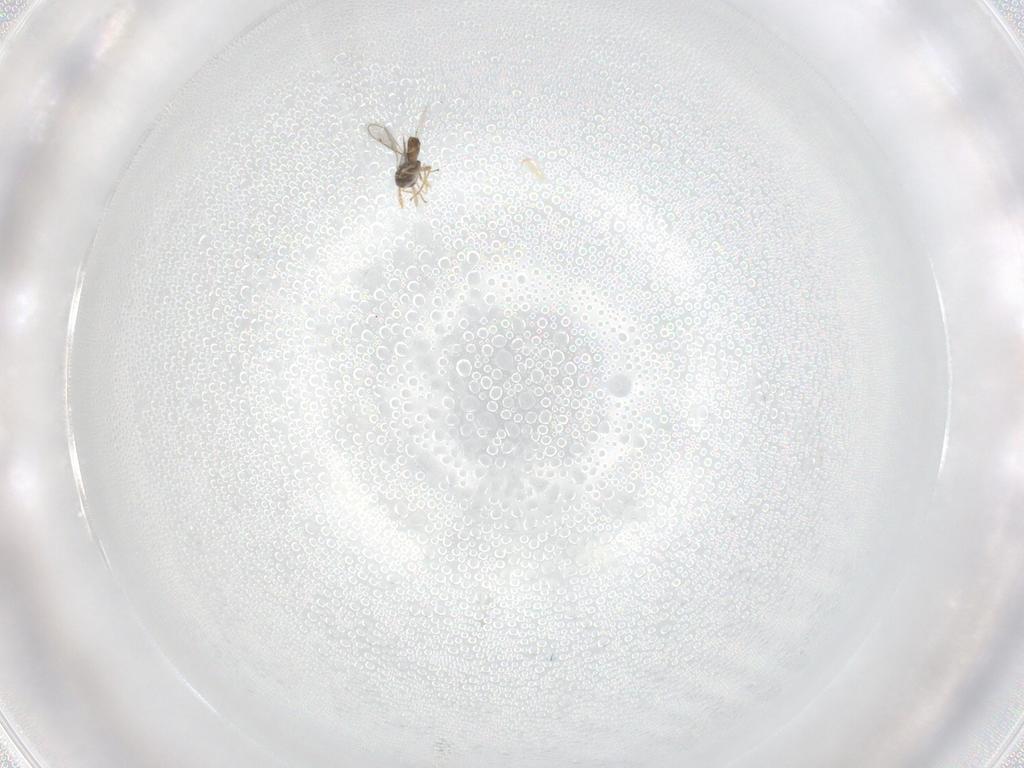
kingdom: Animalia
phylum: Arthropoda
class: Insecta
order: Hymenoptera
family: Eulophidae
